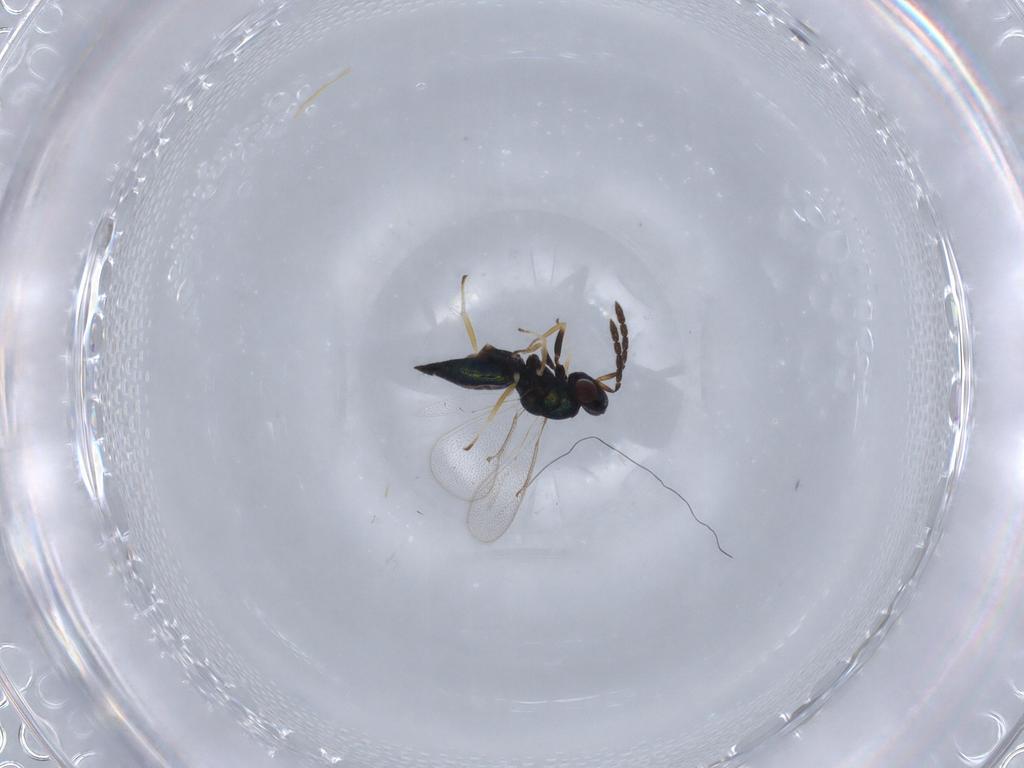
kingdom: Animalia
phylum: Arthropoda
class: Insecta
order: Hymenoptera
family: Eulophidae
